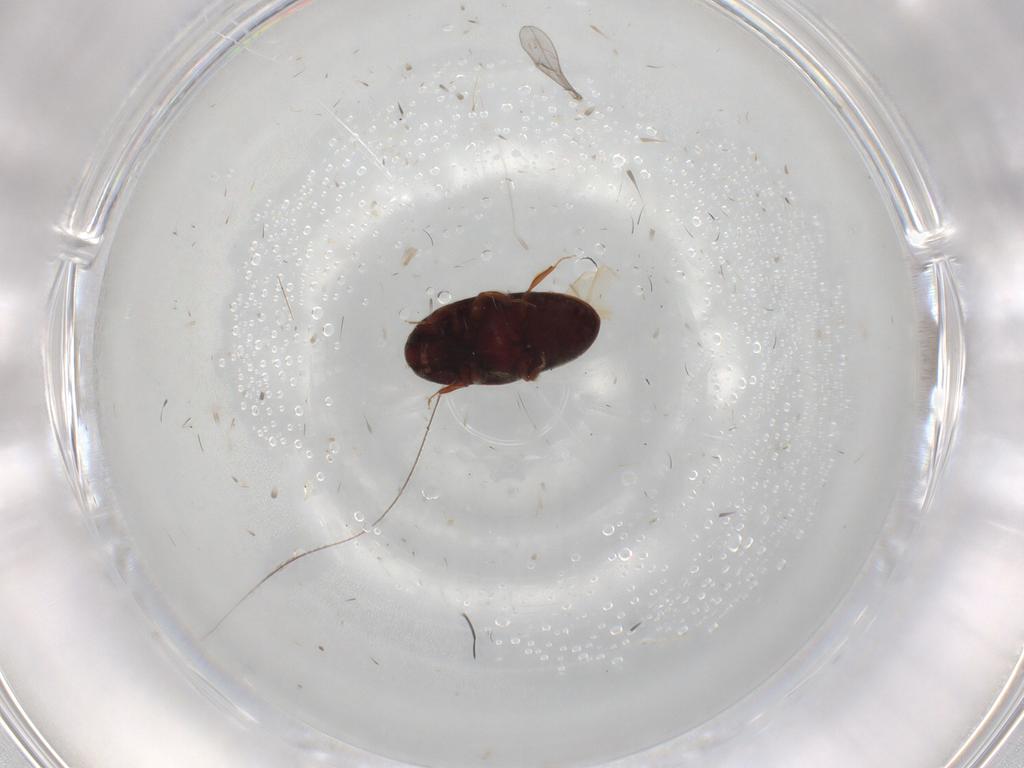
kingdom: Animalia
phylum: Arthropoda
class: Insecta
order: Coleoptera
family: Throscidae
